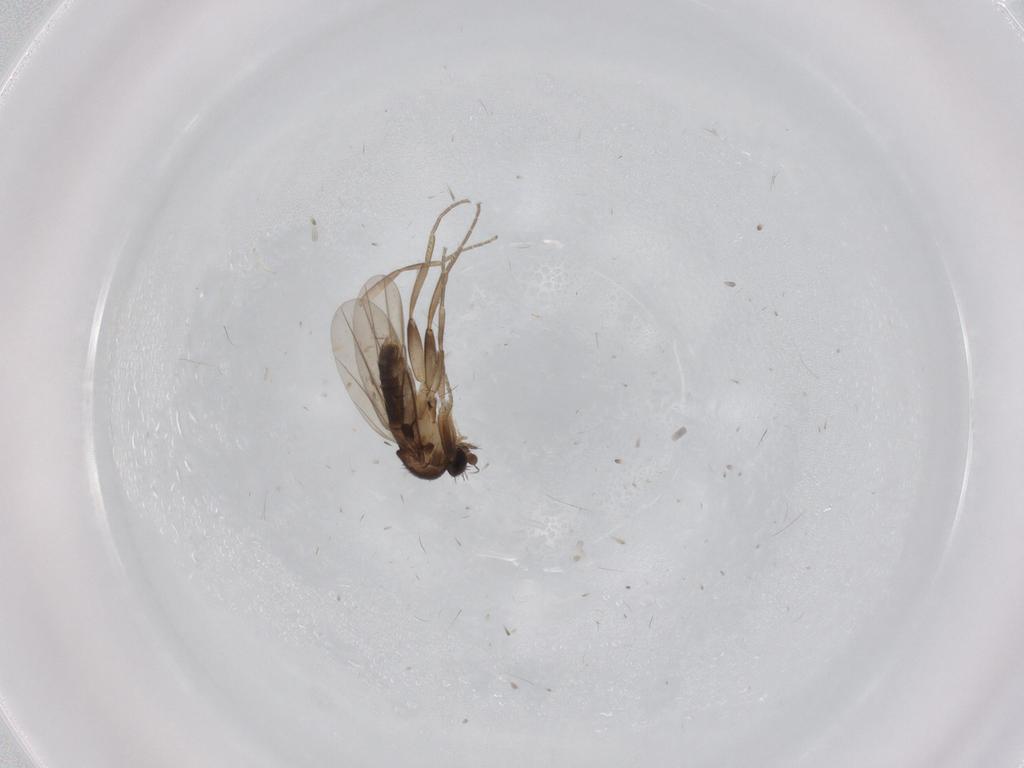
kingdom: Animalia
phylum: Arthropoda
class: Insecta
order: Diptera
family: Phoridae
